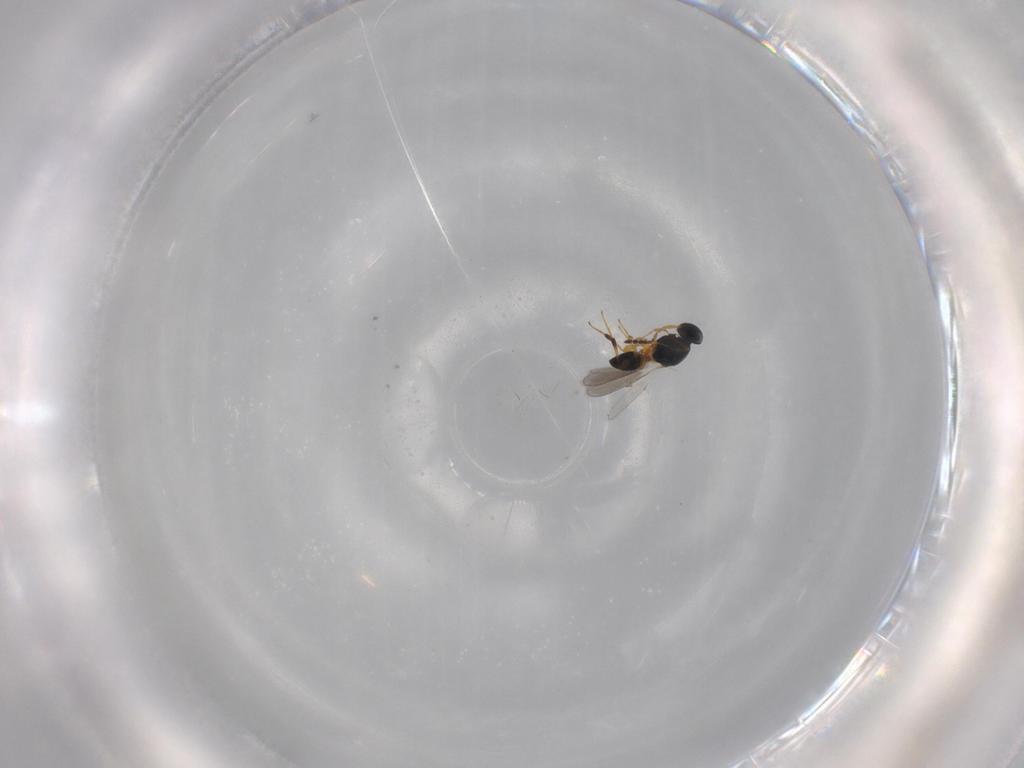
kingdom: Animalia
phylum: Arthropoda
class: Insecta
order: Hymenoptera
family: Platygastridae
